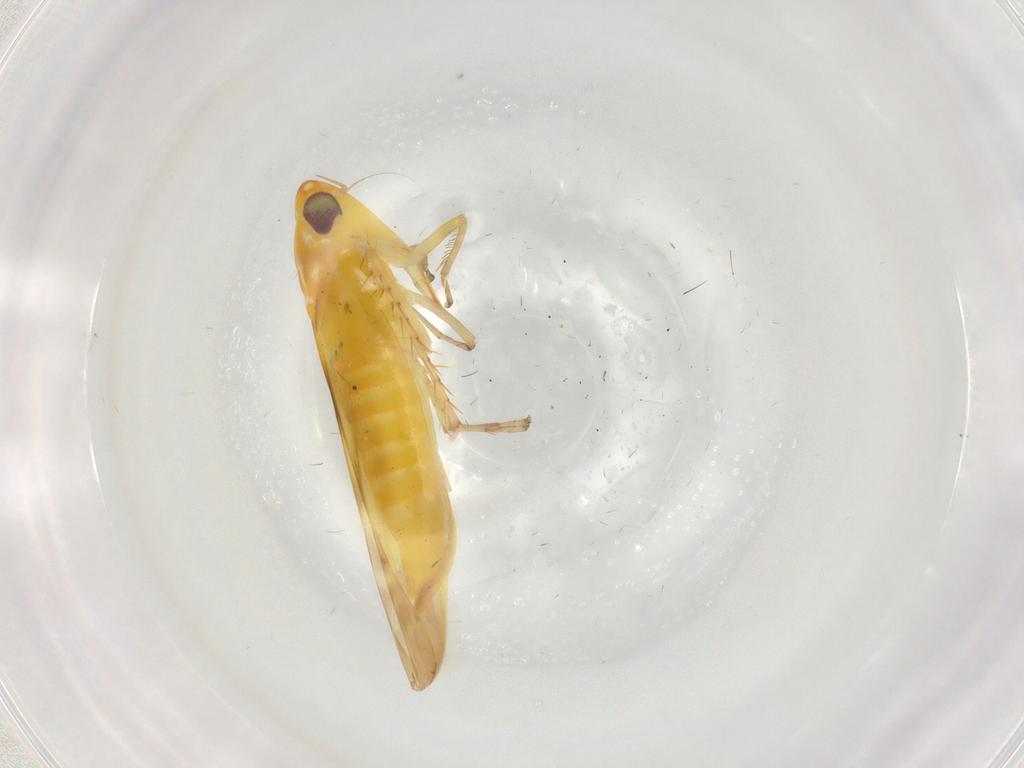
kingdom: Animalia
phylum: Arthropoda
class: Insecta
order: Hemiptera
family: Cicadellidae
